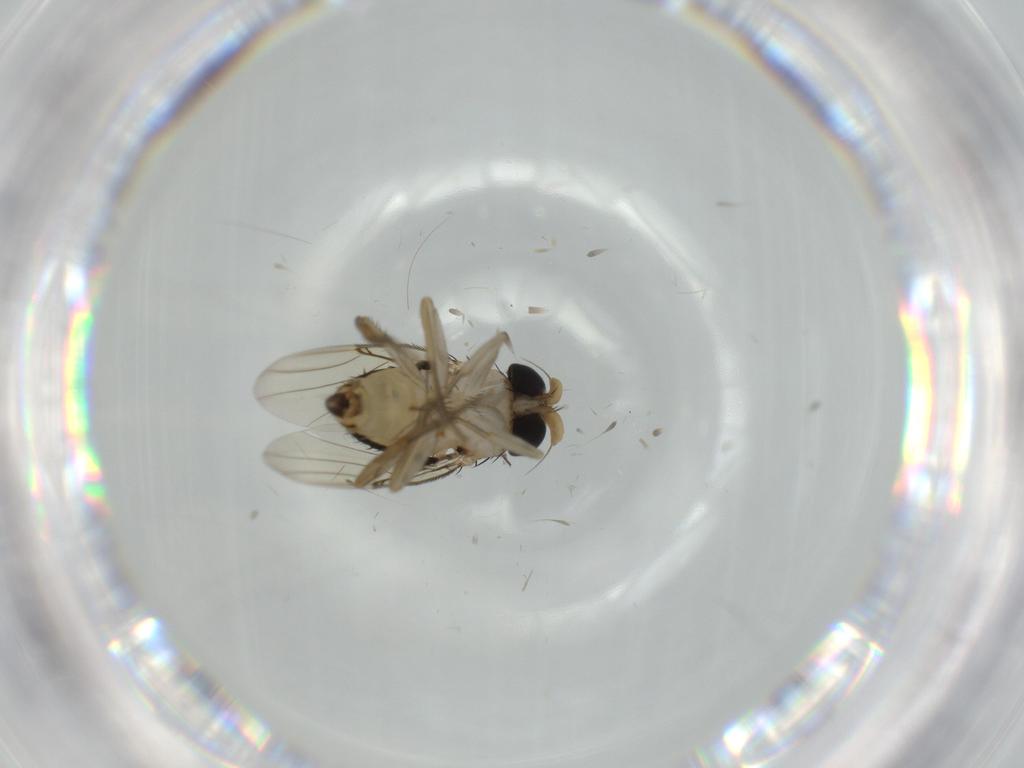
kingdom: Animalia
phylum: Arthropoda
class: Insecta
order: Diptera
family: Phoridae
